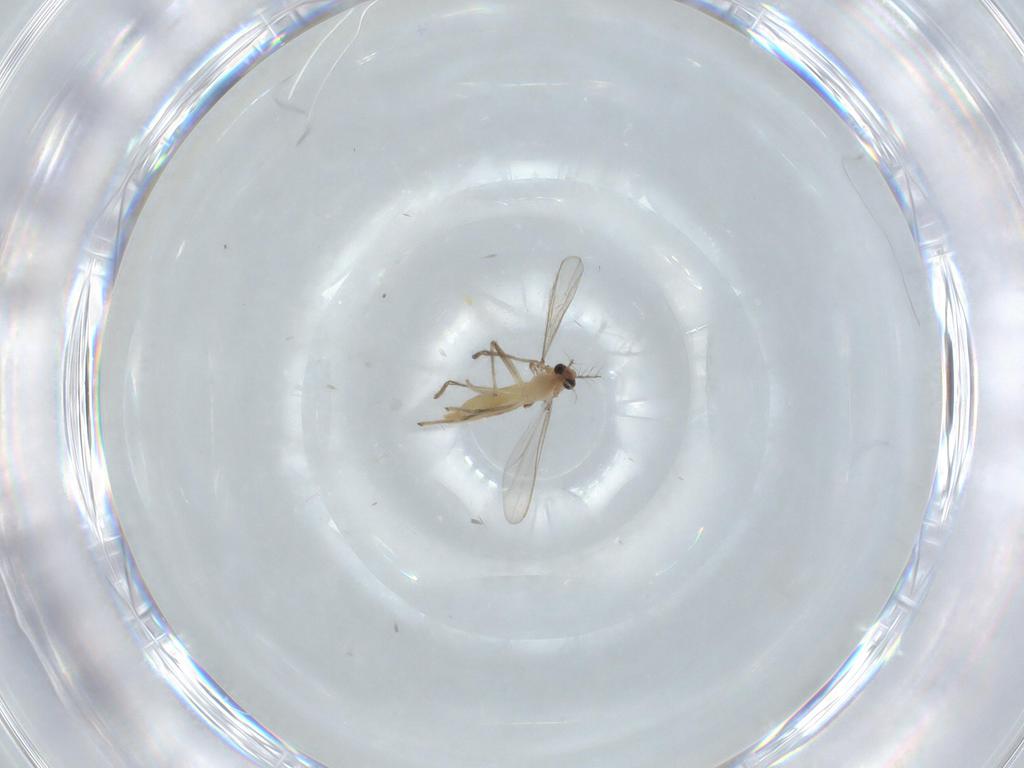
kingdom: Animalia
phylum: Arthropoda
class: Insecta
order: Diptera
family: Chironomidae
